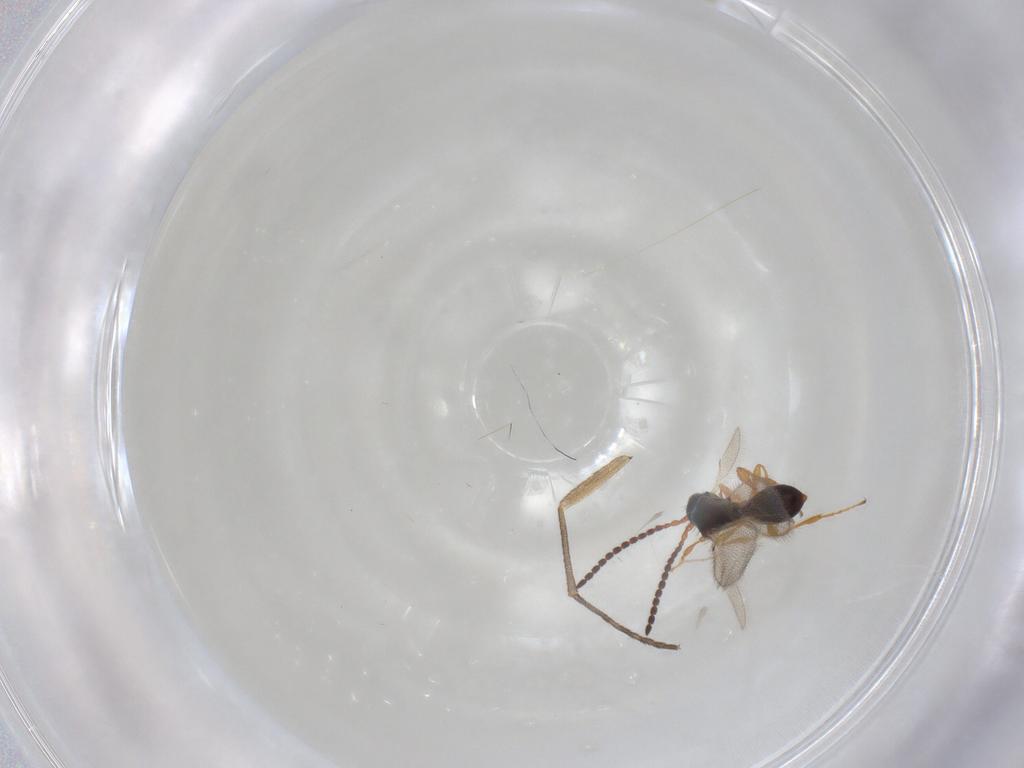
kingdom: Animalia
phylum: Arthropoda
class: Insecta
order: Hymenoptera
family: Diapriidae
